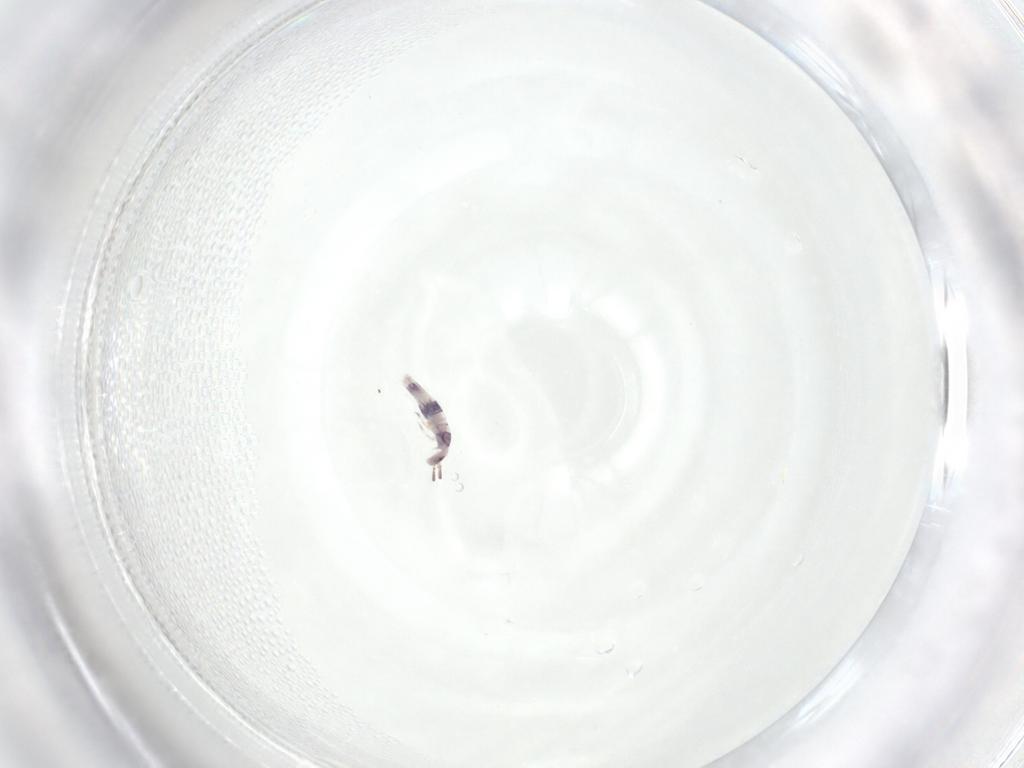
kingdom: Animalia
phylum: Arthropoda
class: Collembola
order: Entomobryomorpha
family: Entomobryidae
